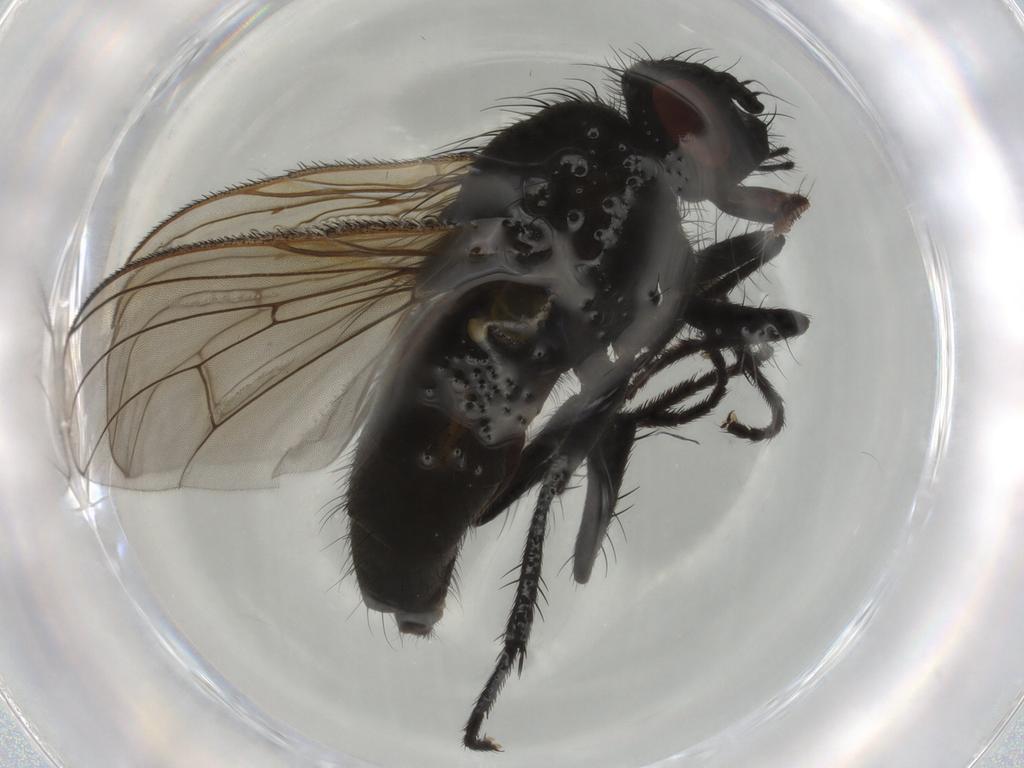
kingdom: Animalia
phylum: Arthropoda
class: Insecta
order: Diptera
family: Muscidae
